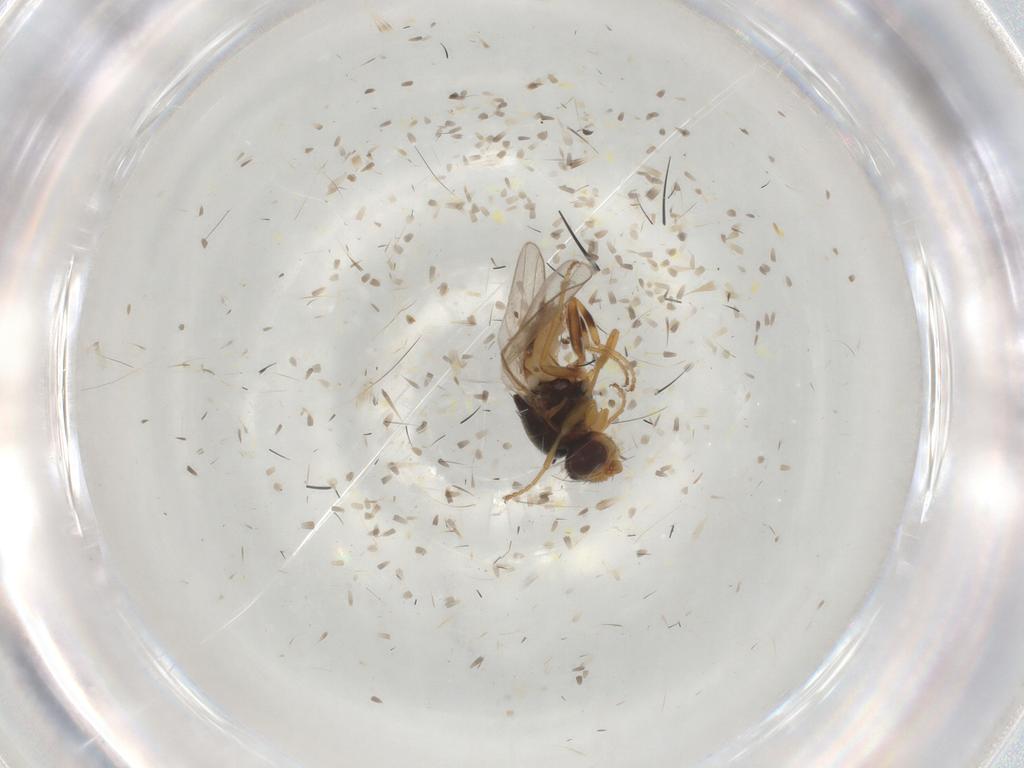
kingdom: Animalia
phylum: Arthropoda
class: Insecta
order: Diptera
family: Chloropidae
